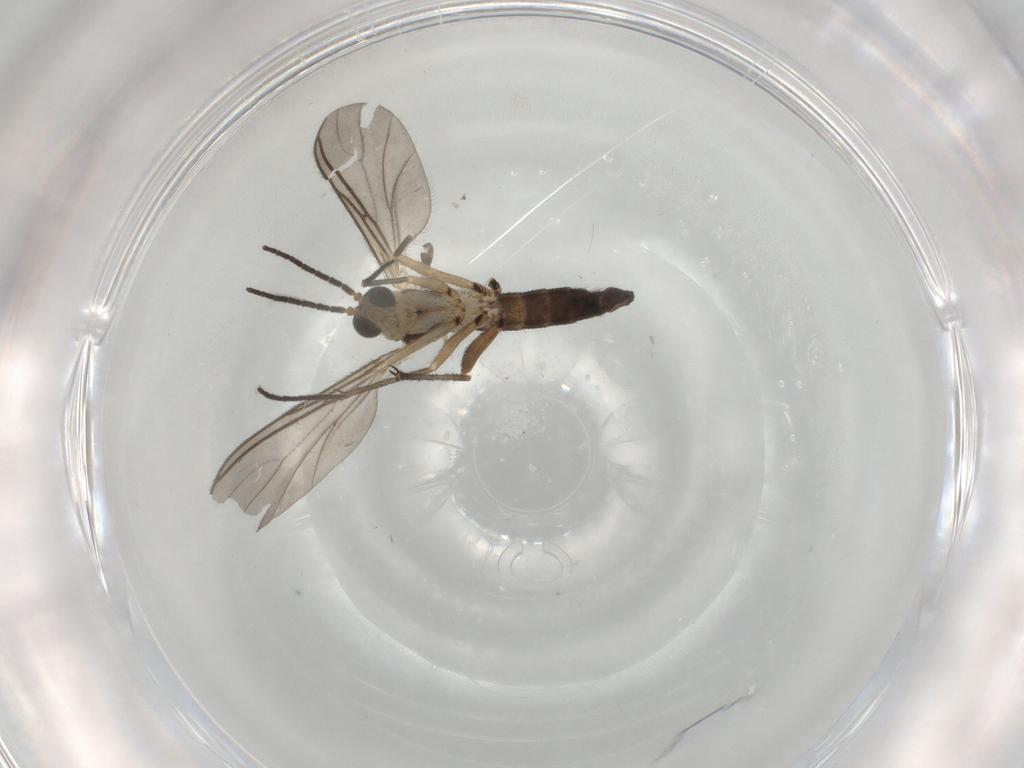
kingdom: Animalia
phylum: Arthropoda
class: Insecta
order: Diptera
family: Sciaridae
